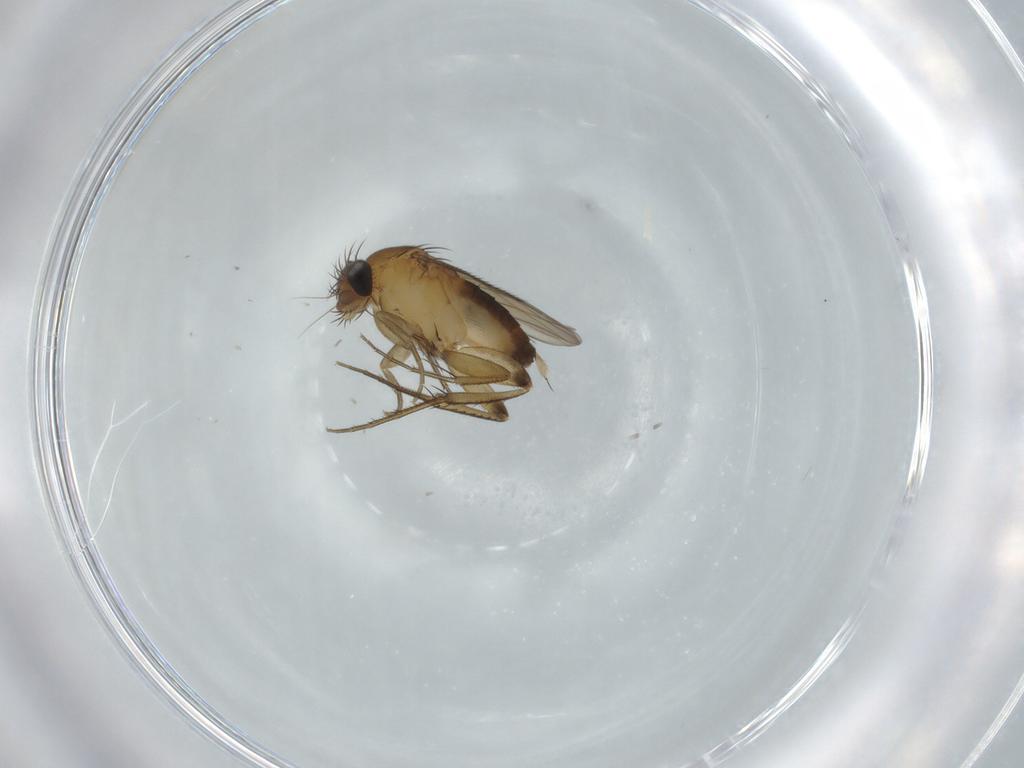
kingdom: Animalia
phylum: Arthropoda
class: Insecta
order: Diptera
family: Phoridae
